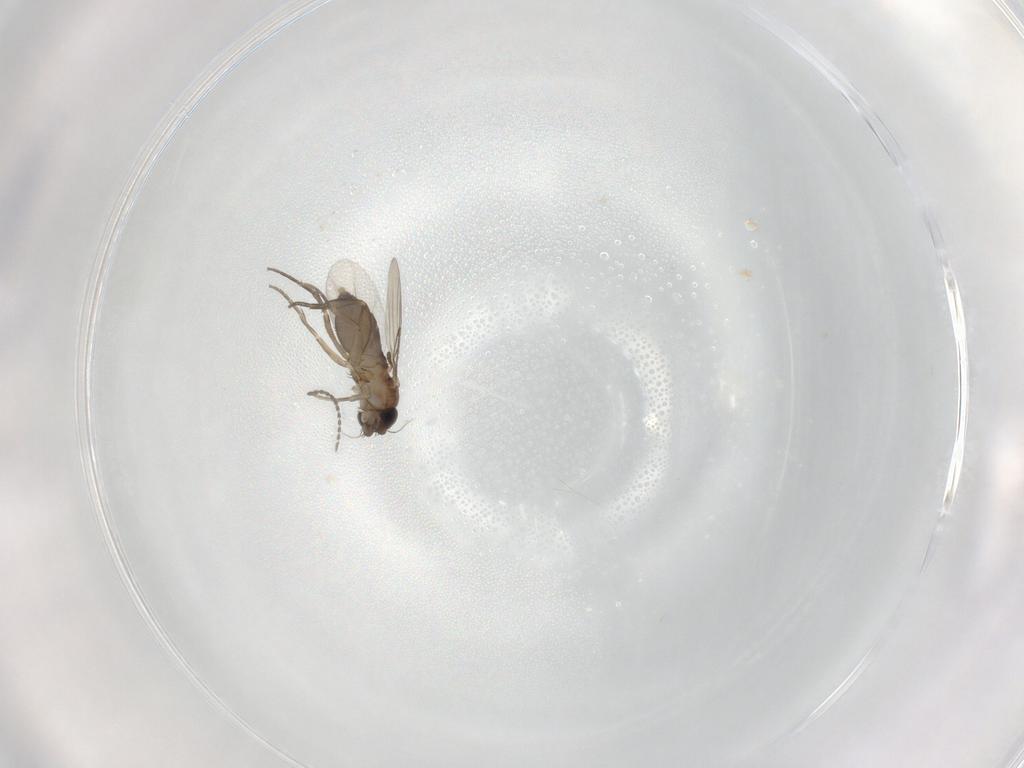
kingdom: Animalia
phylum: Arthropoda
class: Insecta
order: Diptera
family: Phoridae
